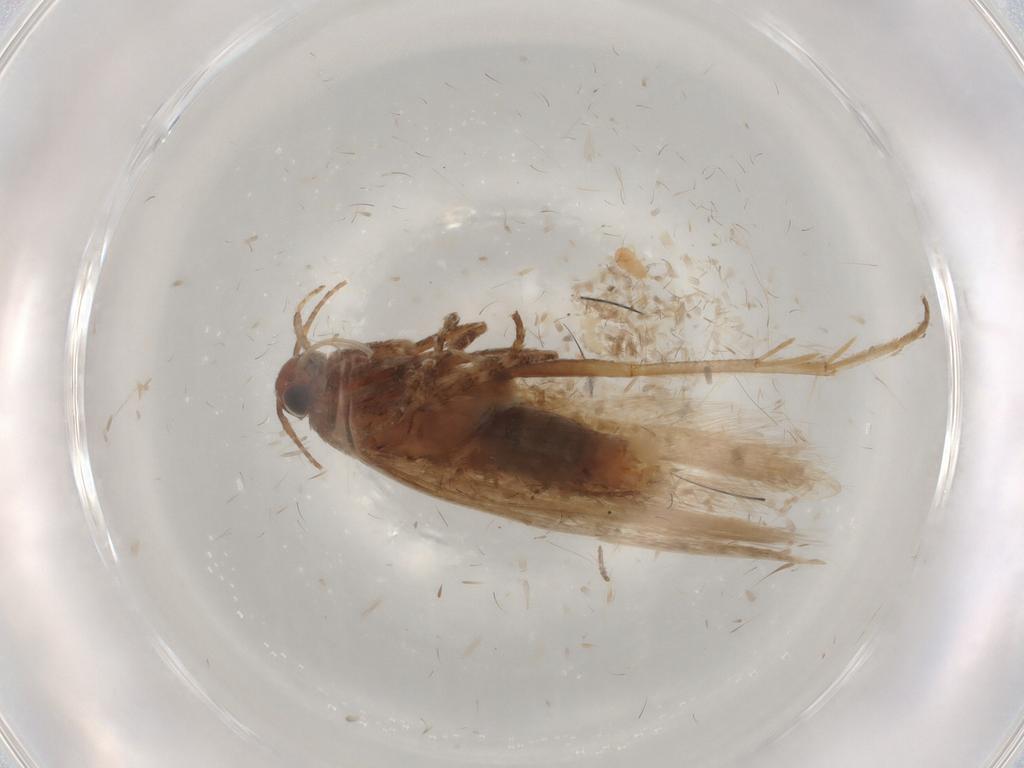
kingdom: Animalia
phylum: Arthropoda
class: Insecta
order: Lepidoptera
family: Gelechiidae
